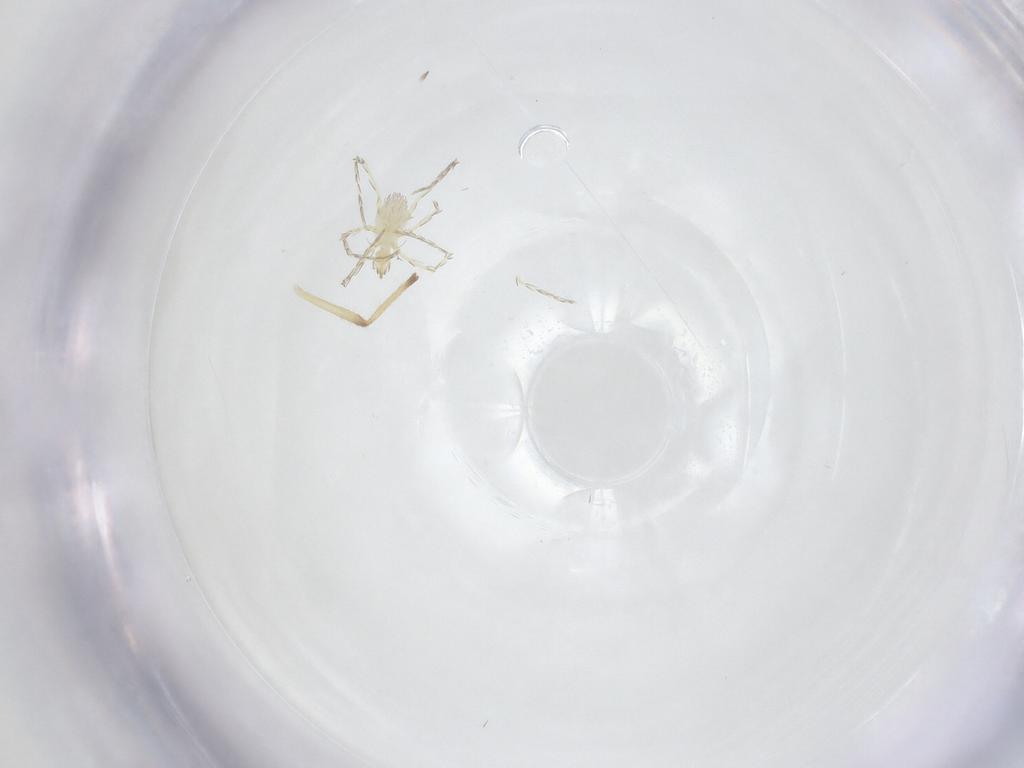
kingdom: Animalia
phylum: Arthropoda
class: Insecta
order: Diptera
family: Chironomidae
